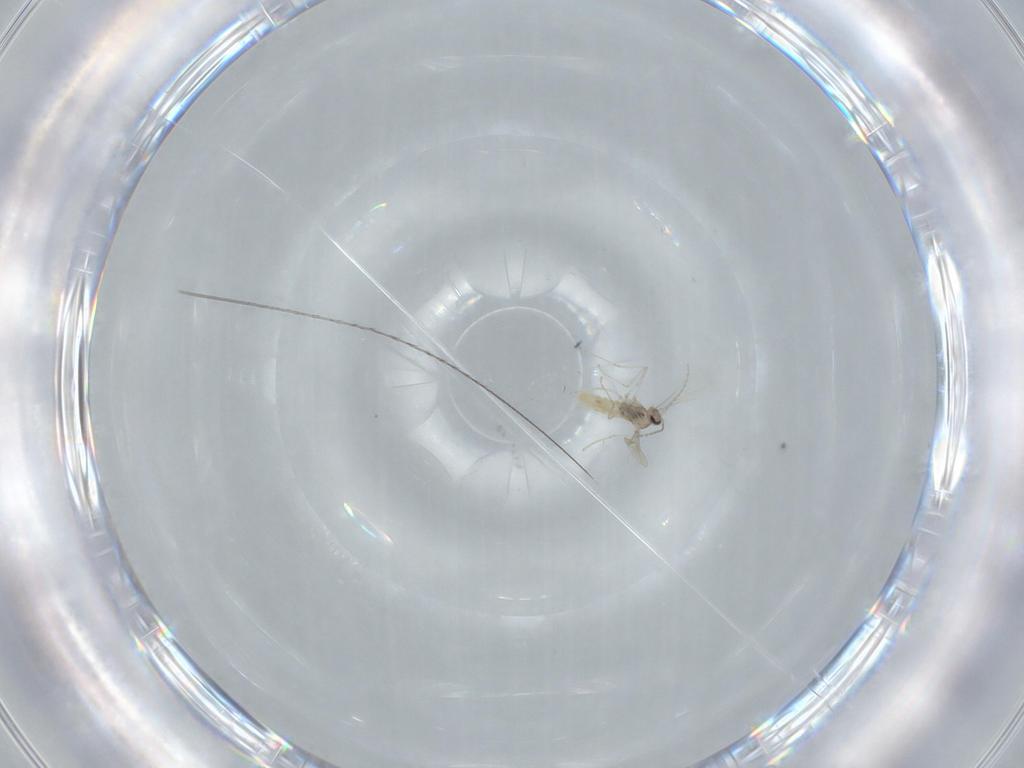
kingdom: Animalia
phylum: Arthropoda
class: Insecta
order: Diptera
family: Cecidomyiidae
